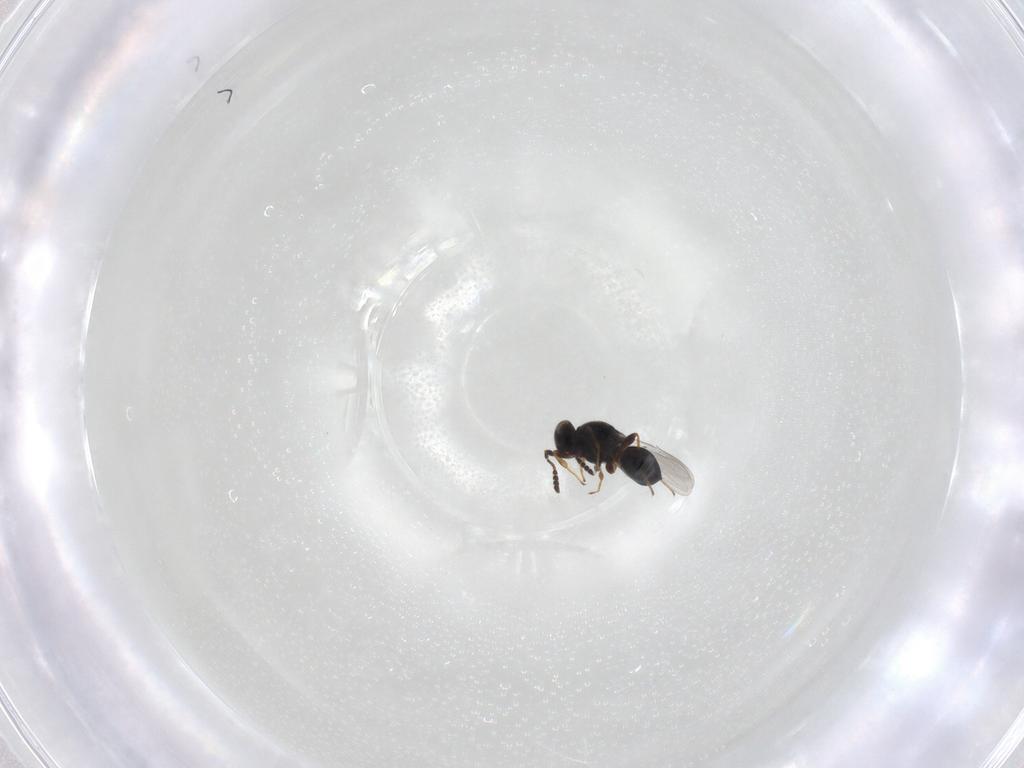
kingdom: Animalia
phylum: Arthropoda
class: Insecta
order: Hymenoptera
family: Platygastridae
